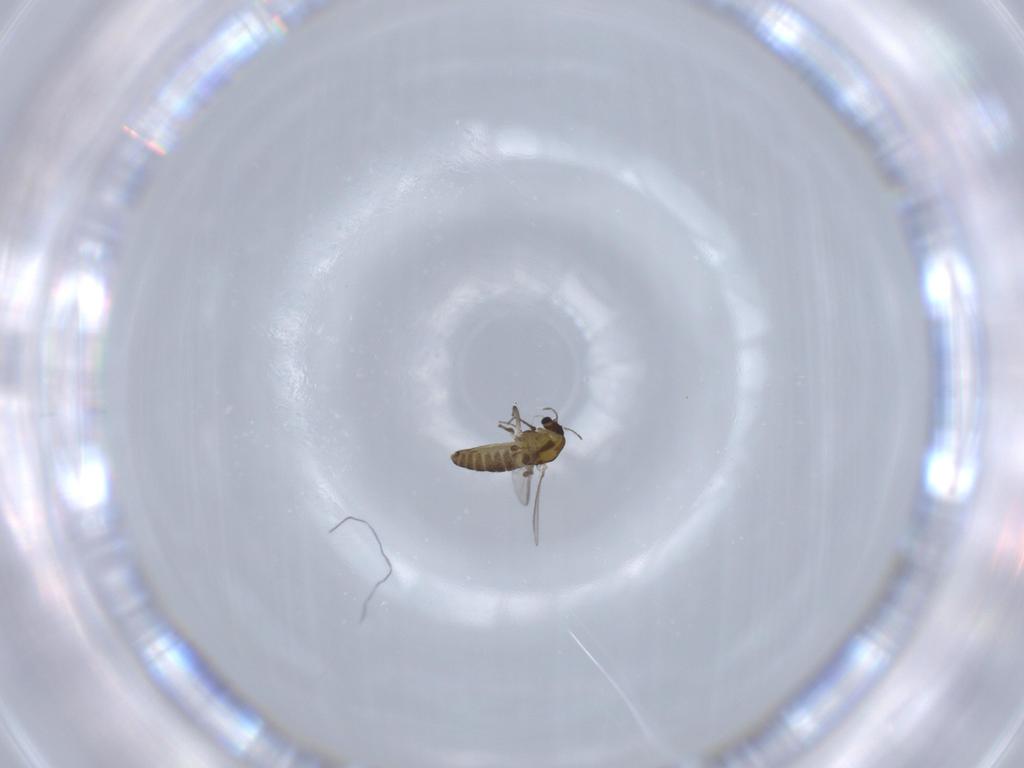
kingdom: Animalia
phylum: Arthropoda
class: Insecta
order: Diptera
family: Chironomidae
